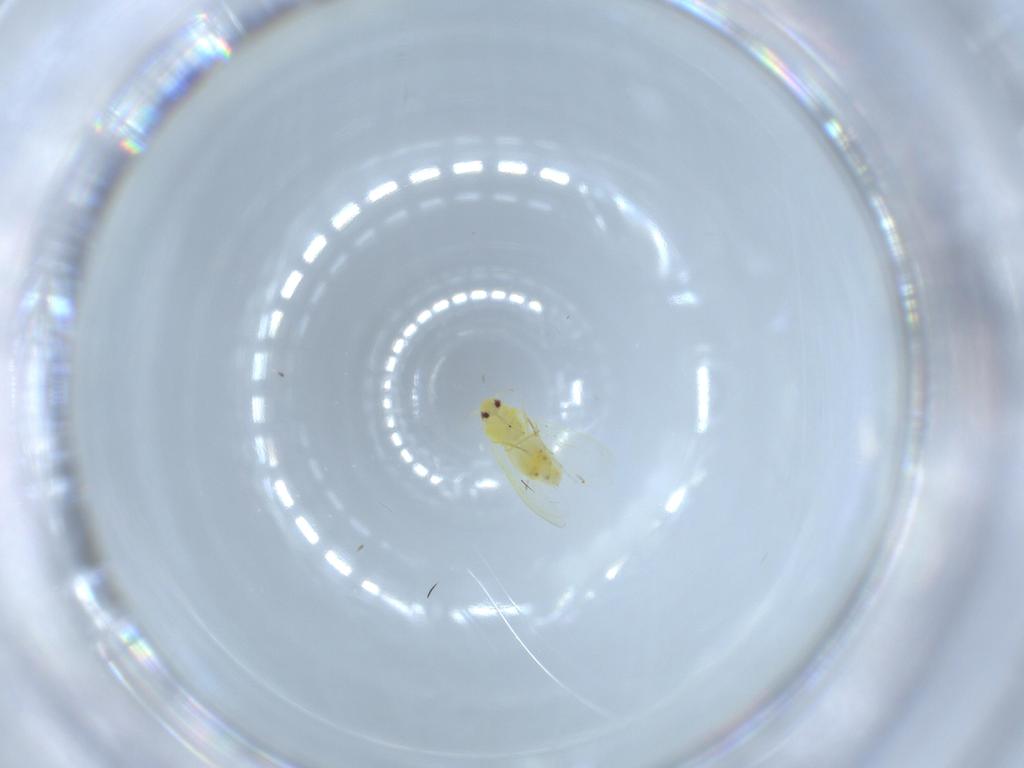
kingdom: Animalia
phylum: Arthropoda
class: Insecta
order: Hemiptera
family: Aleyrodidae
